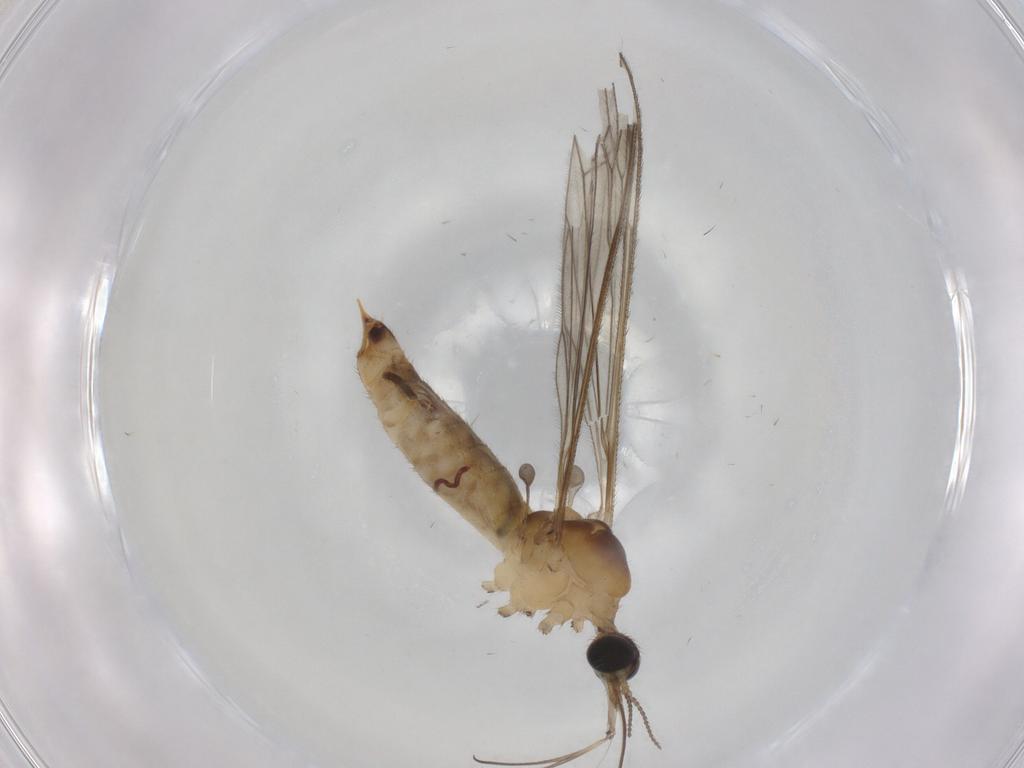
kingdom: Animalia
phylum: Arthropoda
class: Insecta
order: Diptera
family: Limoniidae
